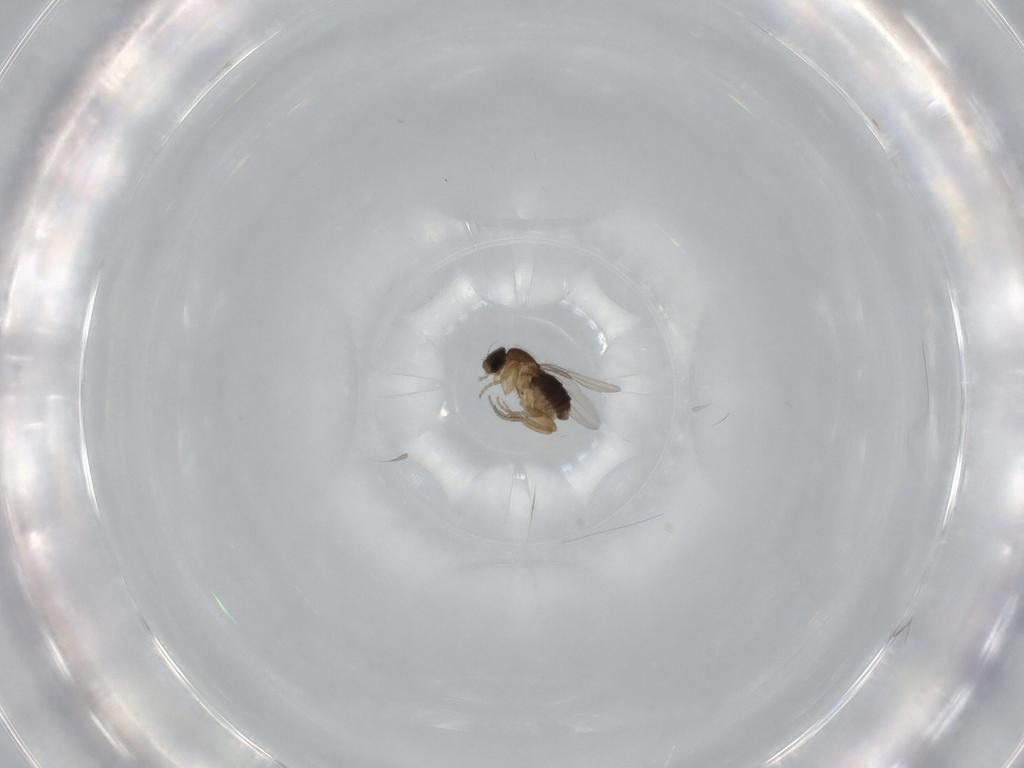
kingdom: Animalia
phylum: Arthropoda
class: Insecta
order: Diptera
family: Phoridae
